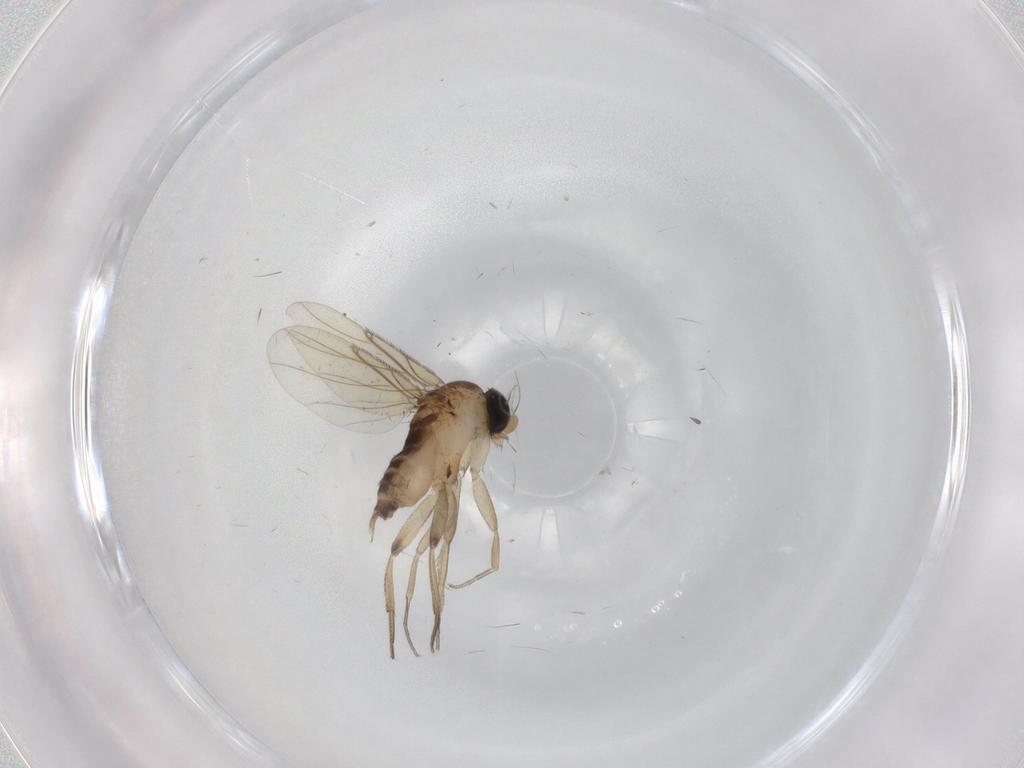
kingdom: Animalia
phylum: Arthropoda
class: Insecta
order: Diptera
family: Phoridae
